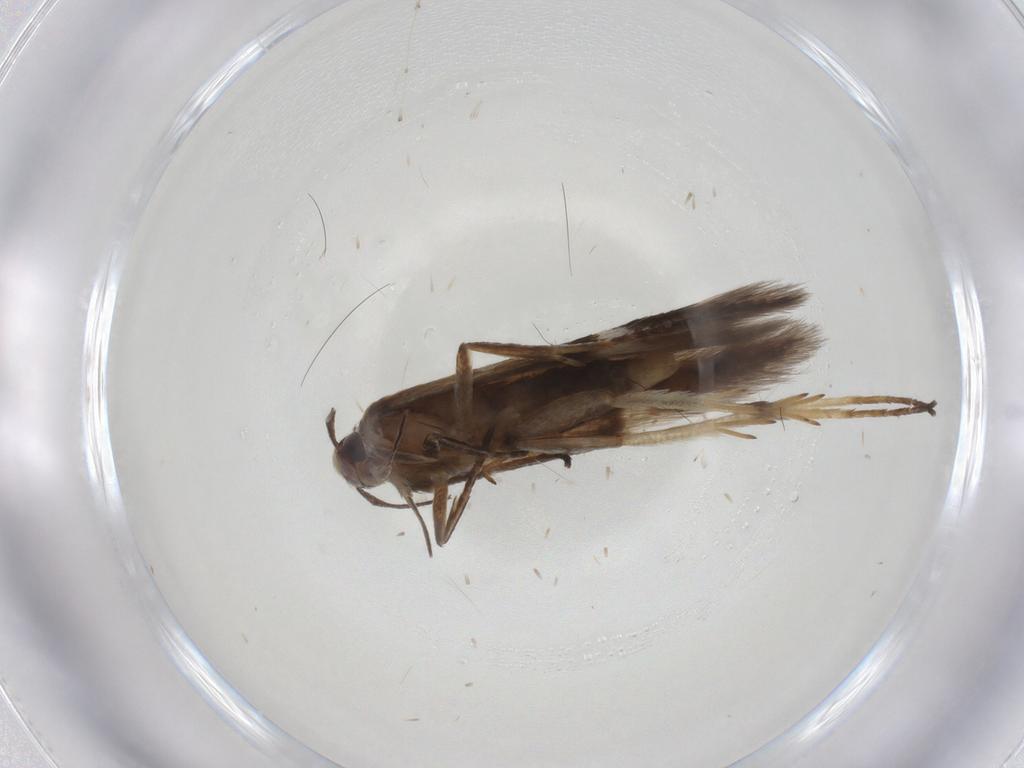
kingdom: Animalia
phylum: Arthropoda
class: Insecta
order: Lepidoptera
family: Gelechiidae
